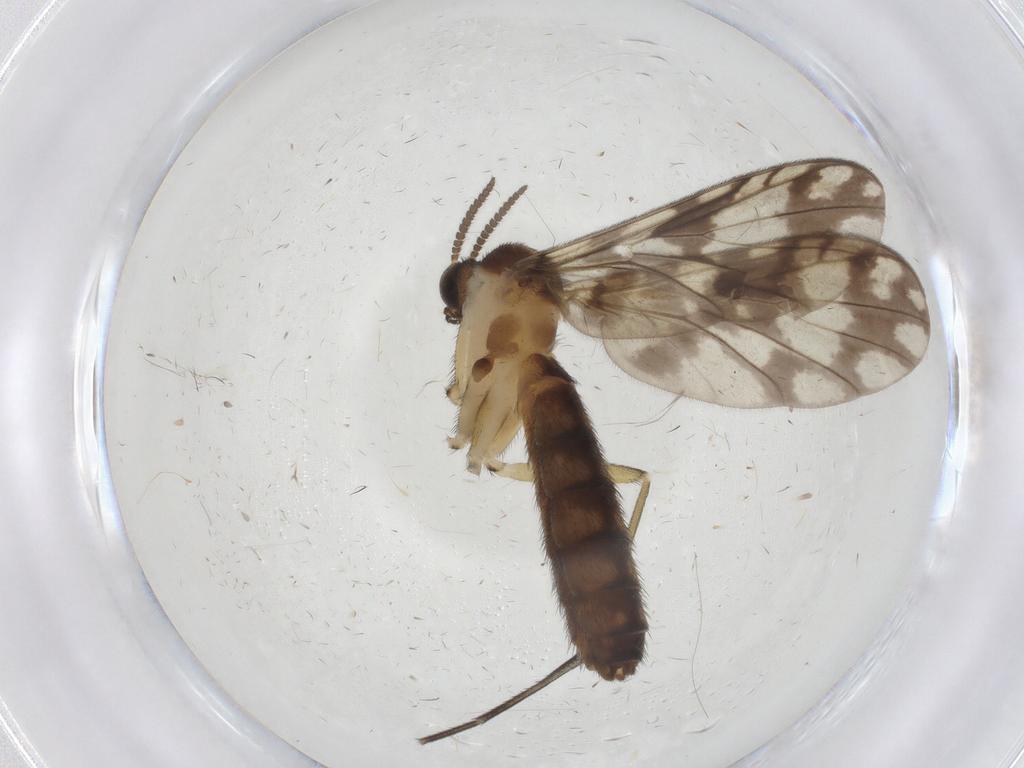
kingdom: Animalia
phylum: Arthropoda
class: Insecta
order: Diptera
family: Keroplatidae
